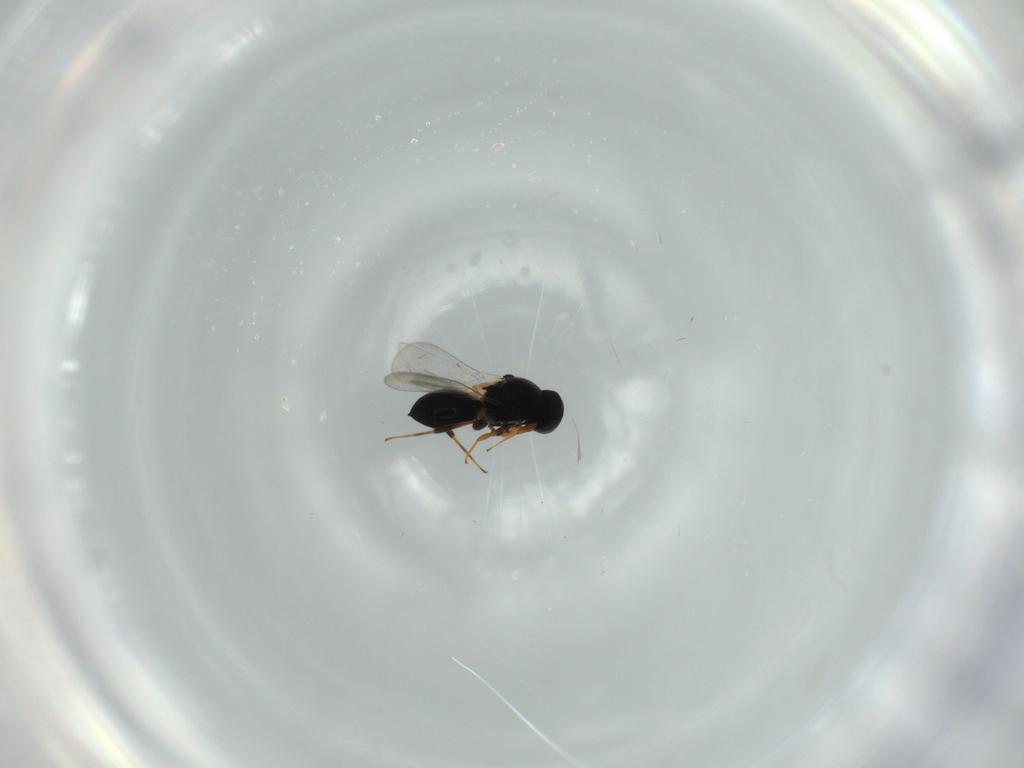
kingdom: Animalia
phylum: Arthropoda
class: Insecta
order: Hymenoptera
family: Platygastridae
